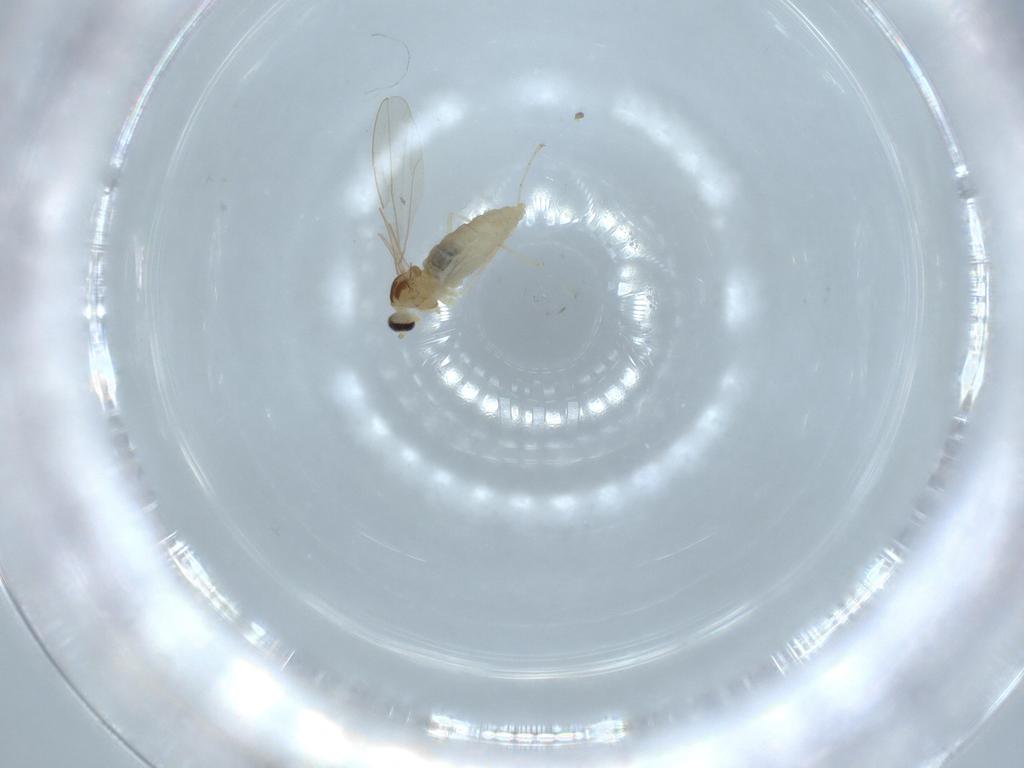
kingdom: Animalia
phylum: Arthropoda
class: Insecta
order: Diptera
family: Cecidomyiidae
